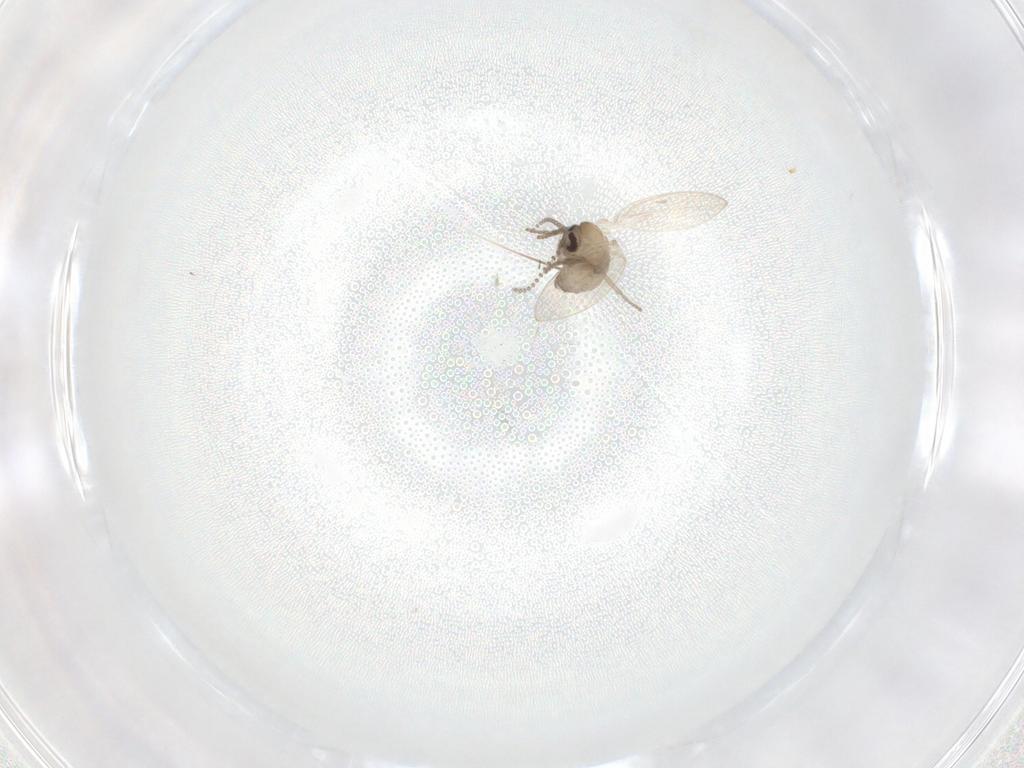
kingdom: Animalia
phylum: Arthropoda
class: Insecta
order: Diptera
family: Psychodidae
